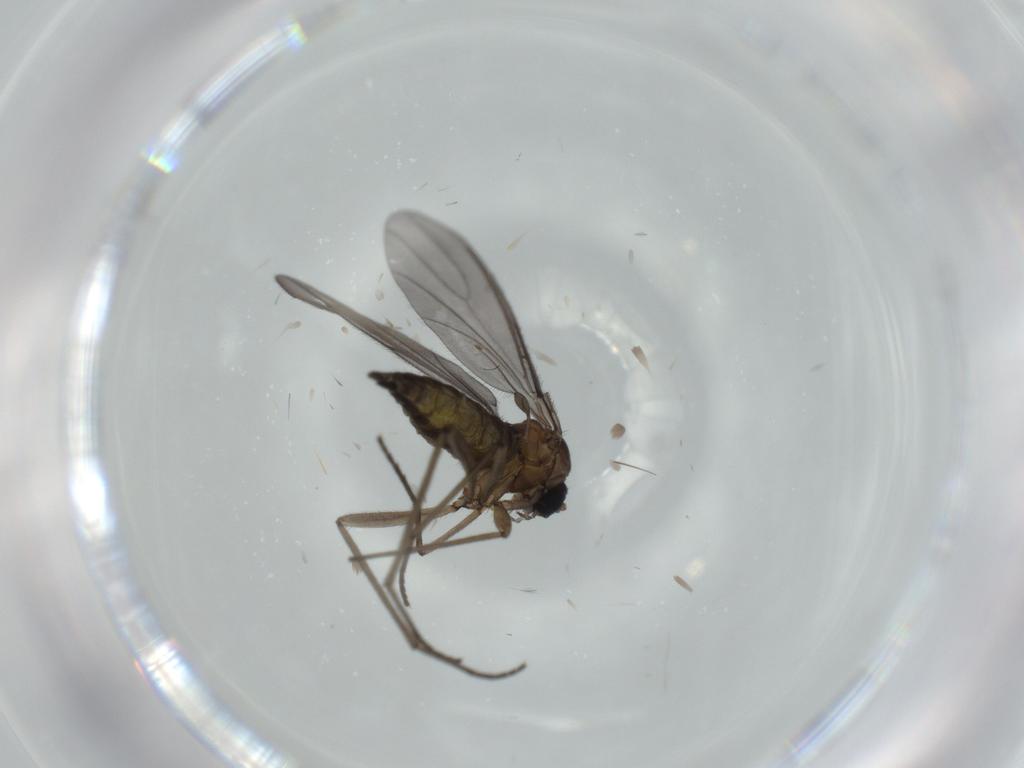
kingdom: Animalia
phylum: Arthropoda
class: Insecta
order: Diptera
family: Sciaridae
